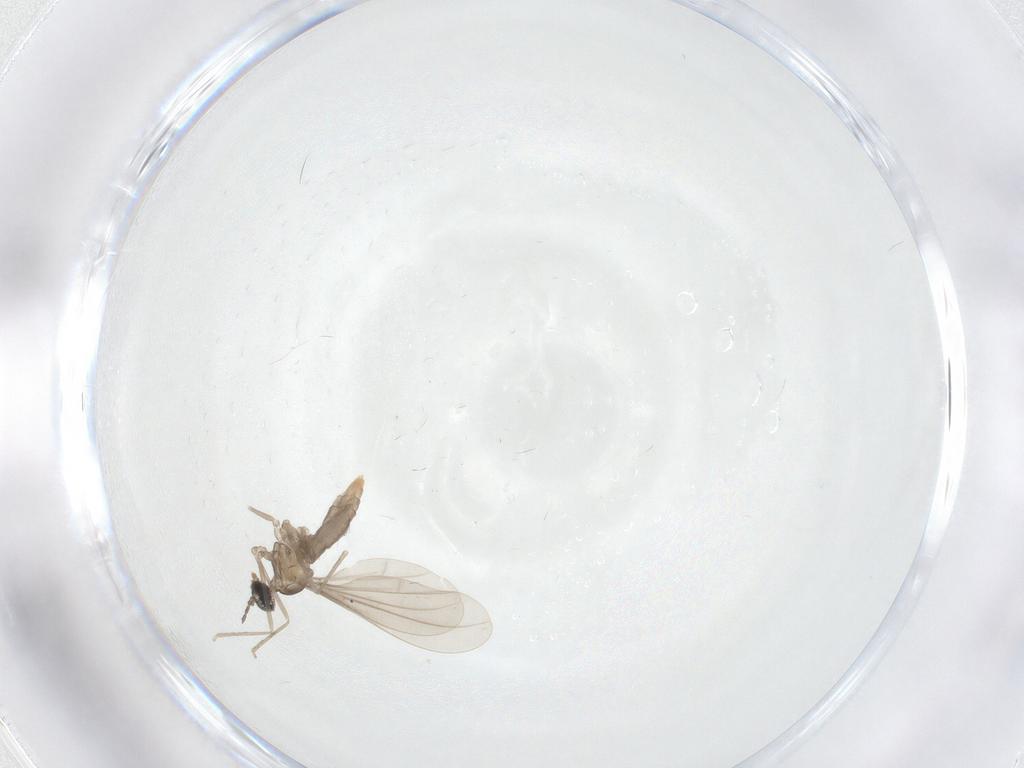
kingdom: Animalia
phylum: Arthropoda
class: Insecta
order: Diptera
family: Cecidomyiidae
